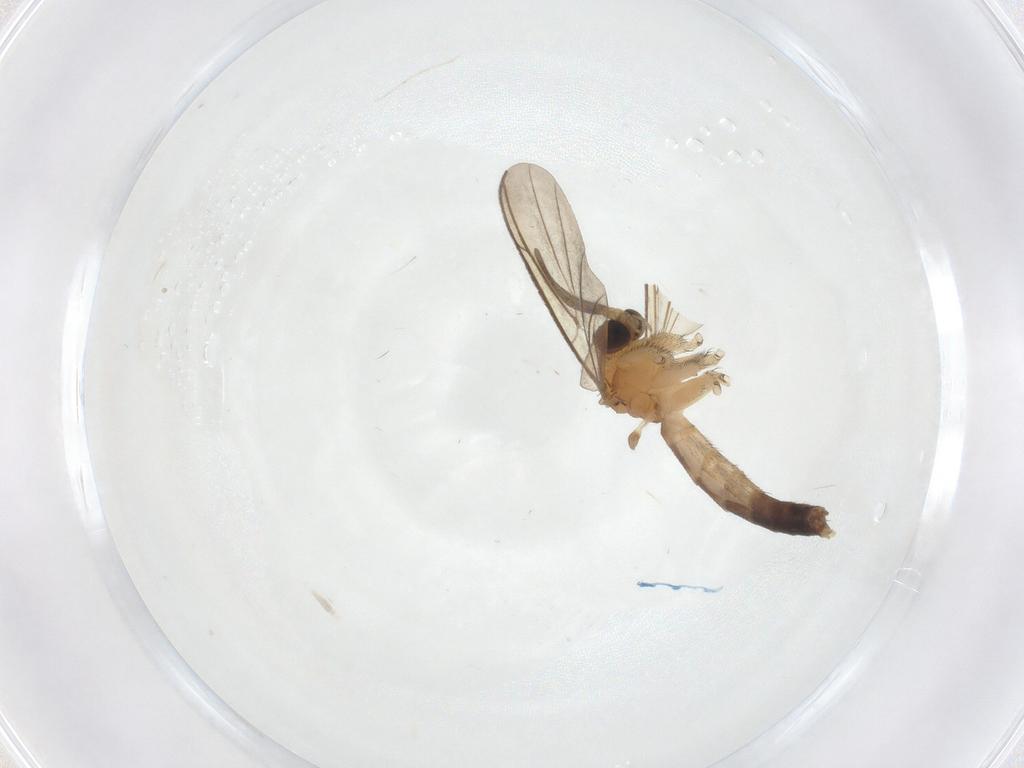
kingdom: Animalia
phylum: Arthropoda
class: Insecta
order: Diptera
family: Keroplatidae
